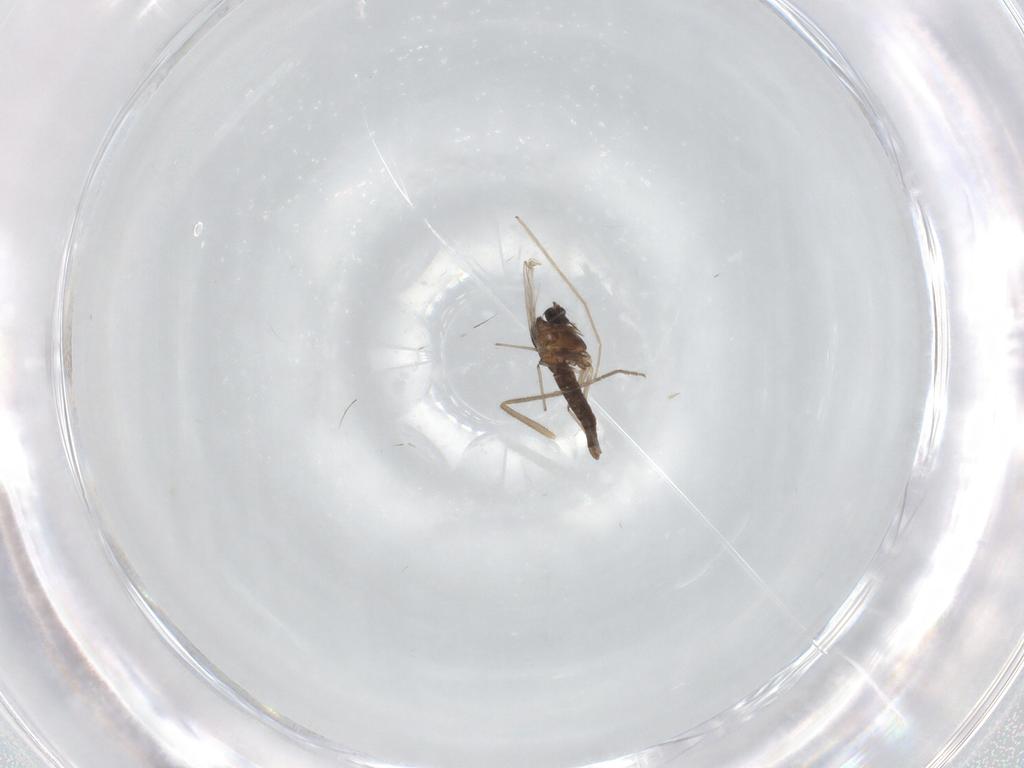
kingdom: Animalia
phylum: Arthropoda
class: Insecta
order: Diptera
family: Chironomidae
